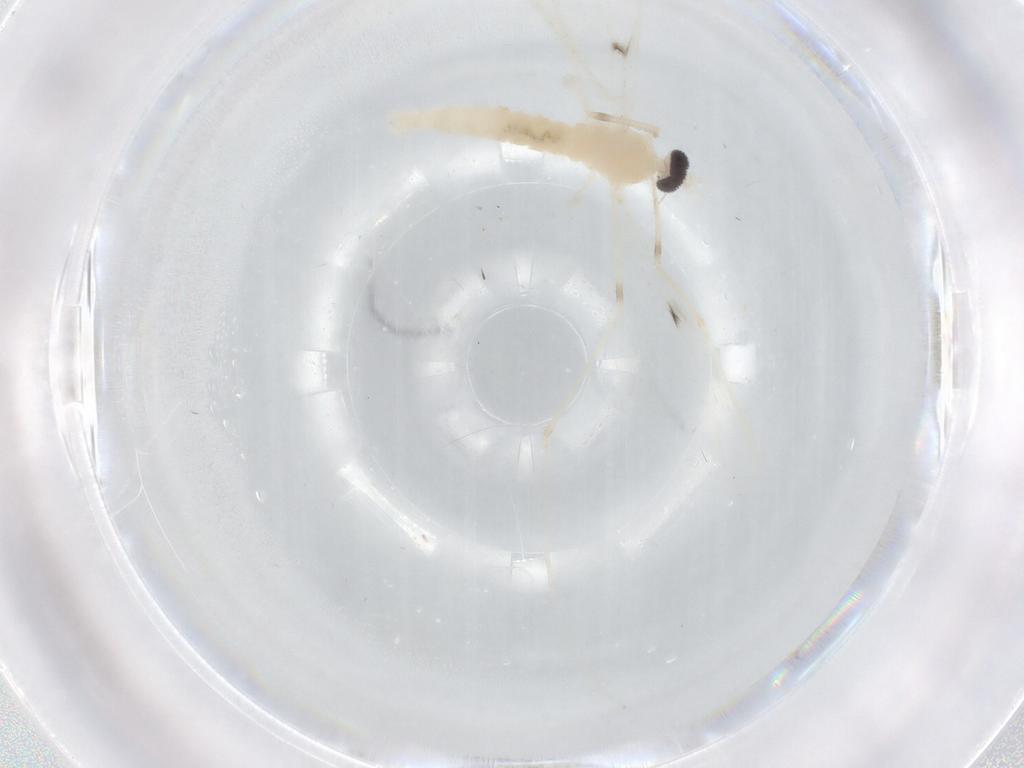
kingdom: Animalia
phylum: Arthropoda
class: Insecta
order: Diptera
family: Cecidomyiidae
